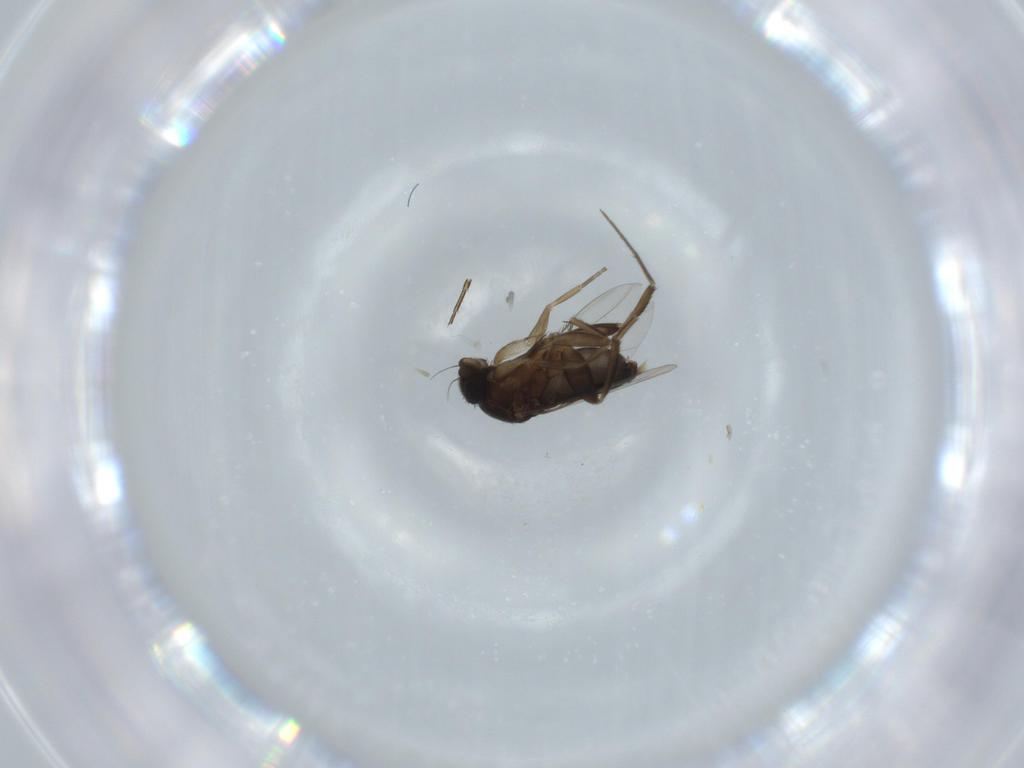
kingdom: Animalia
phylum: Arthropoda
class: Insecta
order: Diptera
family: Phoridae
